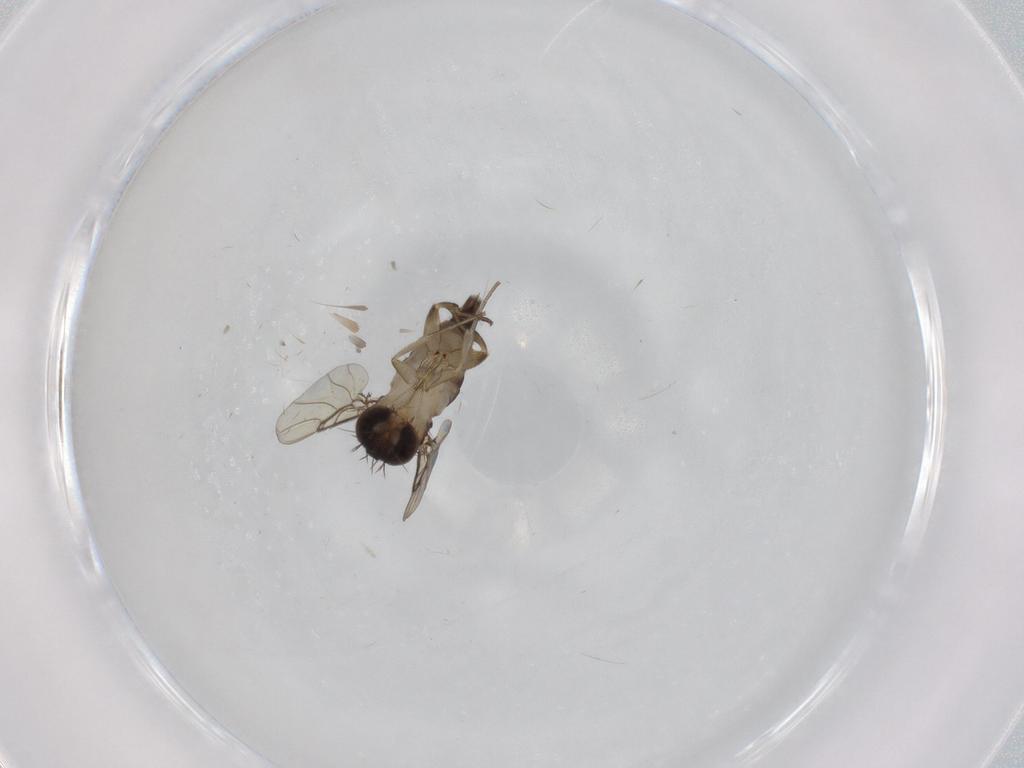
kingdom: Animalia
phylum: Arthropoda
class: Insecta
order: Diptera
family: Phoridae
